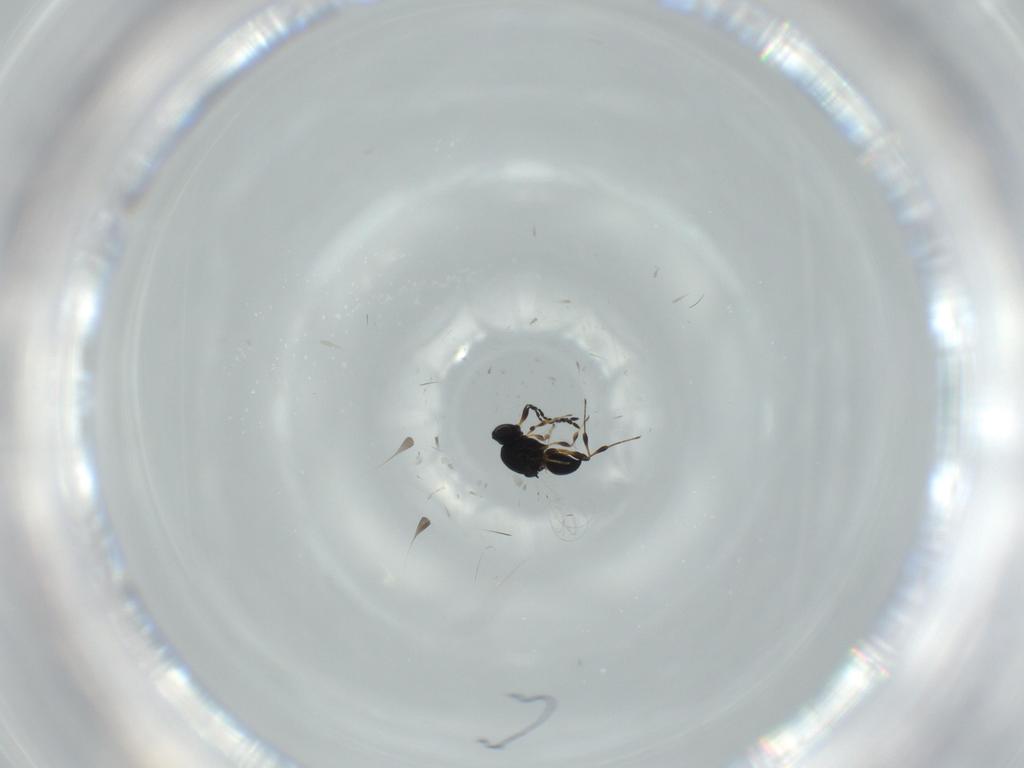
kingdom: Animalia
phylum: Arthropoda
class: Insecta
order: Hymenoptera
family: Platygastridae
